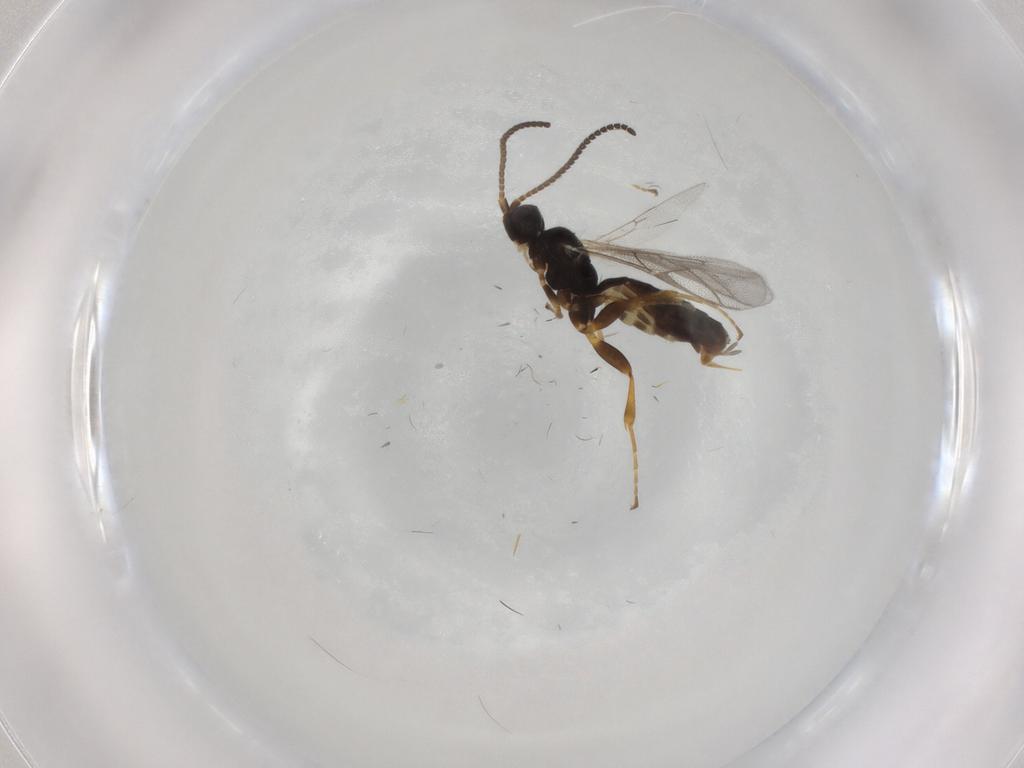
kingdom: Animalia
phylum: Arthropoda
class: Insecta
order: Hymenoptera
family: Ichneumonidae
